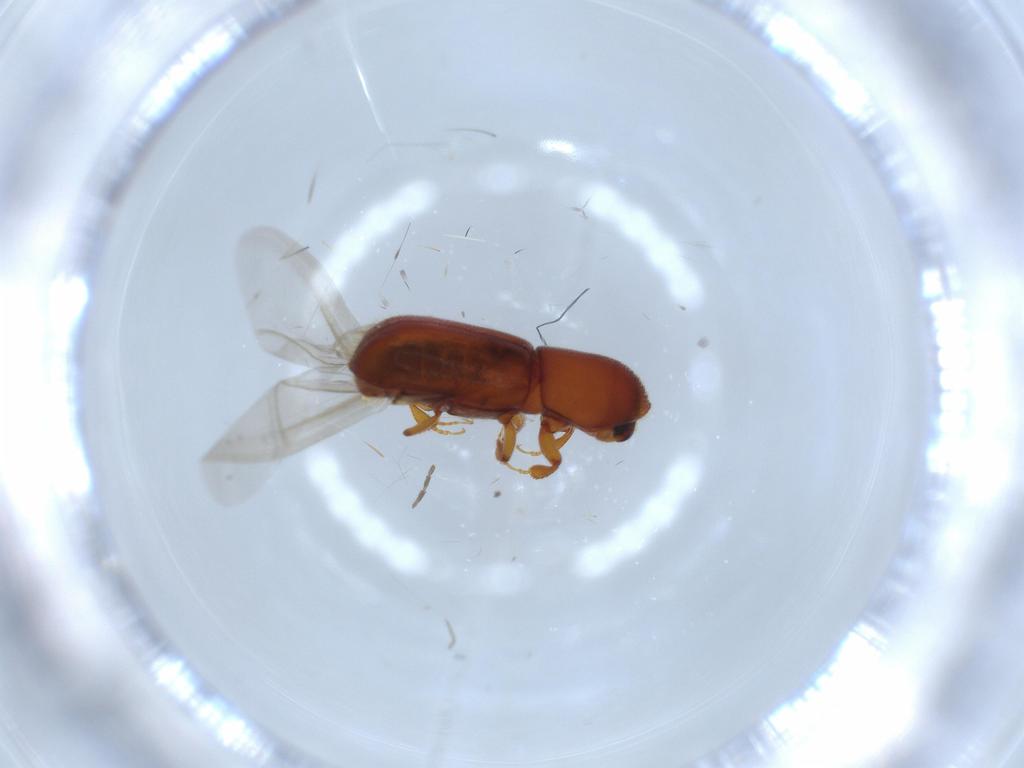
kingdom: Animalia
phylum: Arthropoda
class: Insecta
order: Coleoptera
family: Curculionidae
